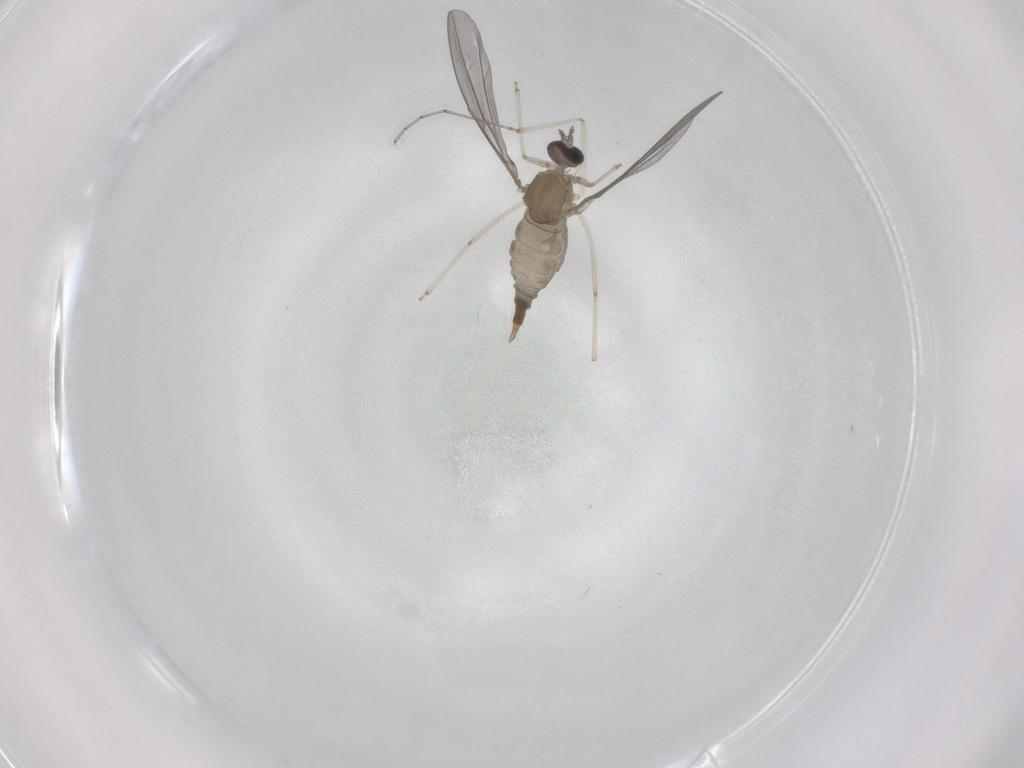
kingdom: Animalia
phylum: Arthropoda
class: Insecta
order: Diptera
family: Cecidomyiidae
